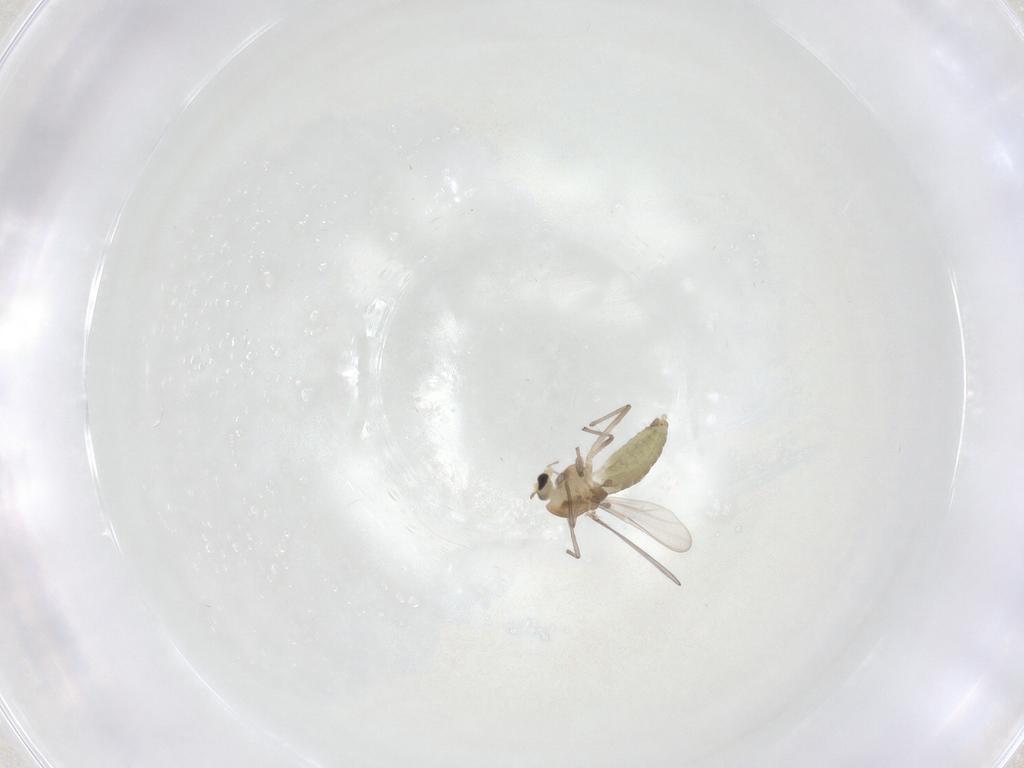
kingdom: Animalia
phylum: Arthropoda
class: Insecta
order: Diptera
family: Chironomidae
